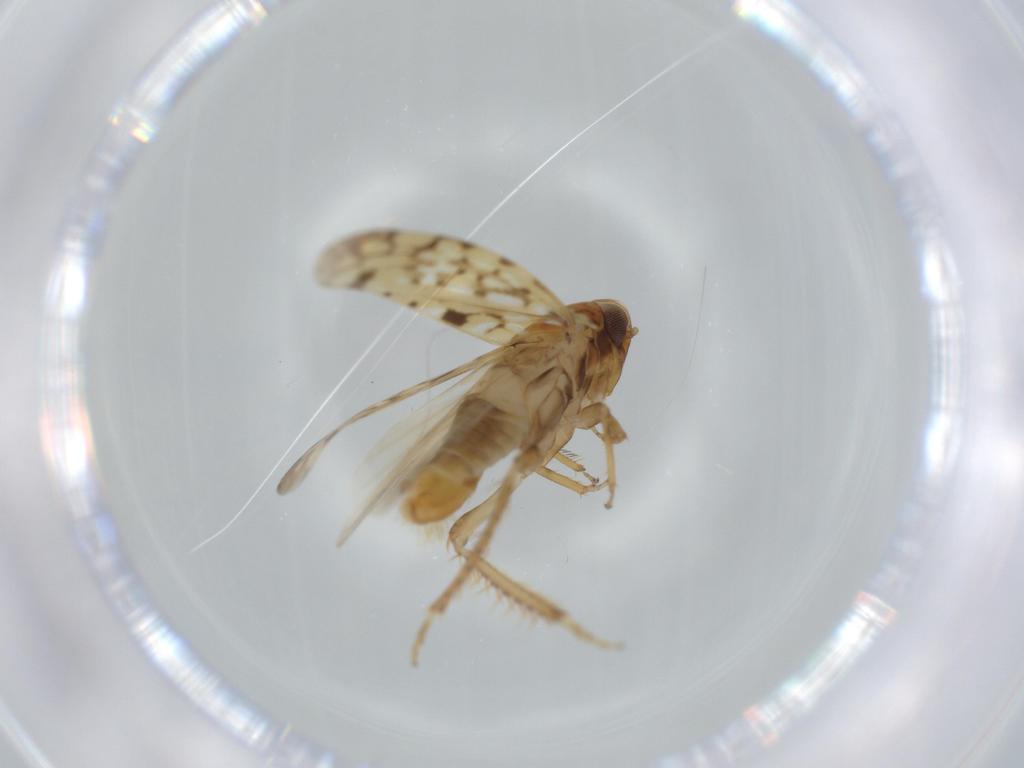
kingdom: Animalia
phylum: Arthropoda
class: Insecta
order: Hemiptera
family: Cicadellidae
